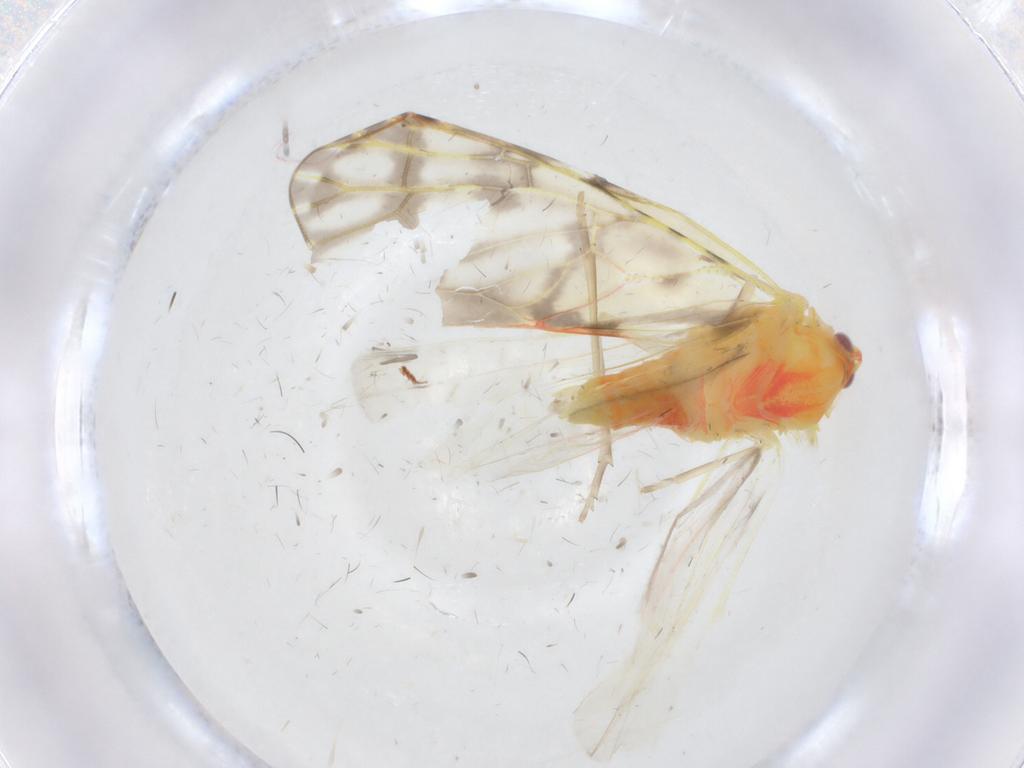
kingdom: Animalia
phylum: Arthropoda
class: Insecta
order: Hemiptera
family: Derbidae
